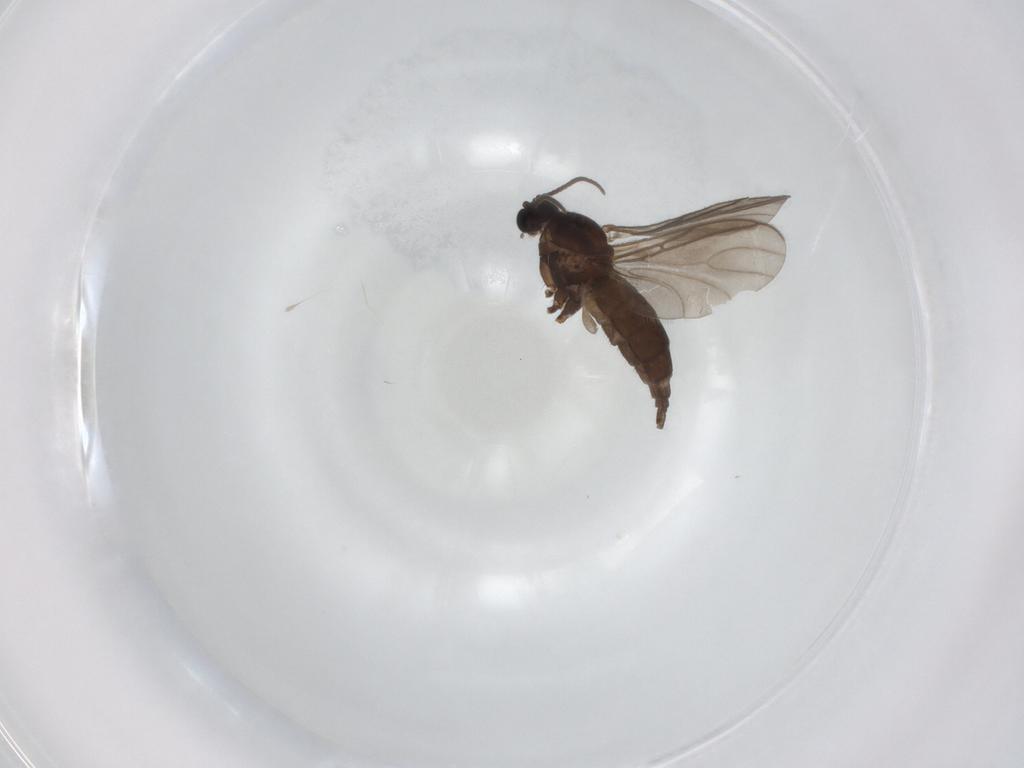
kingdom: Animalia
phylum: Arthropoda
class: Insecta
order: Diptera
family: Sciaridae
